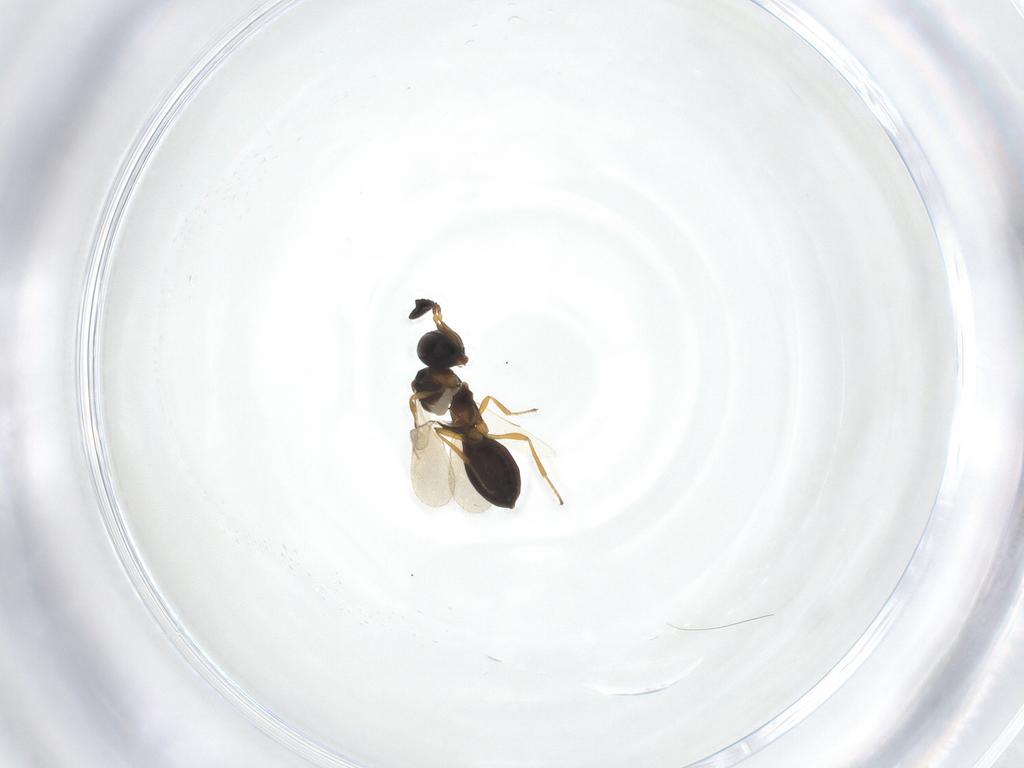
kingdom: Animalia
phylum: Arthropoda
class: Insecta
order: Hymenoptera
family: Scelionidae
